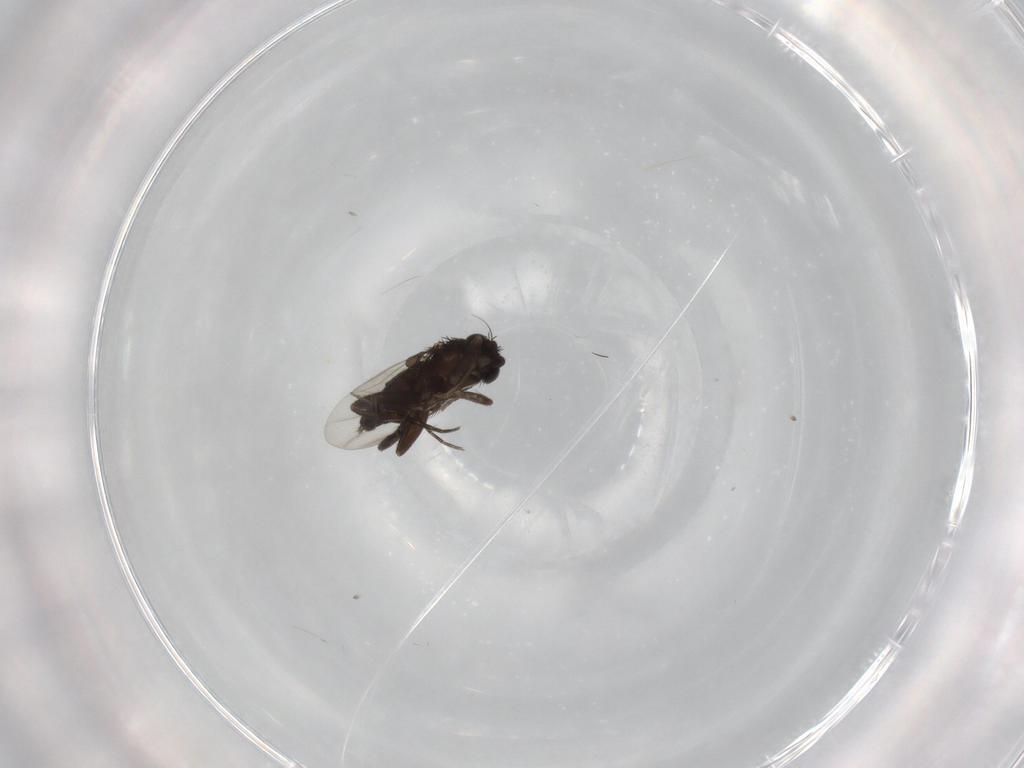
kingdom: Animalia
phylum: Arthropoda
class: Insecta
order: Diptera
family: Phoridae
